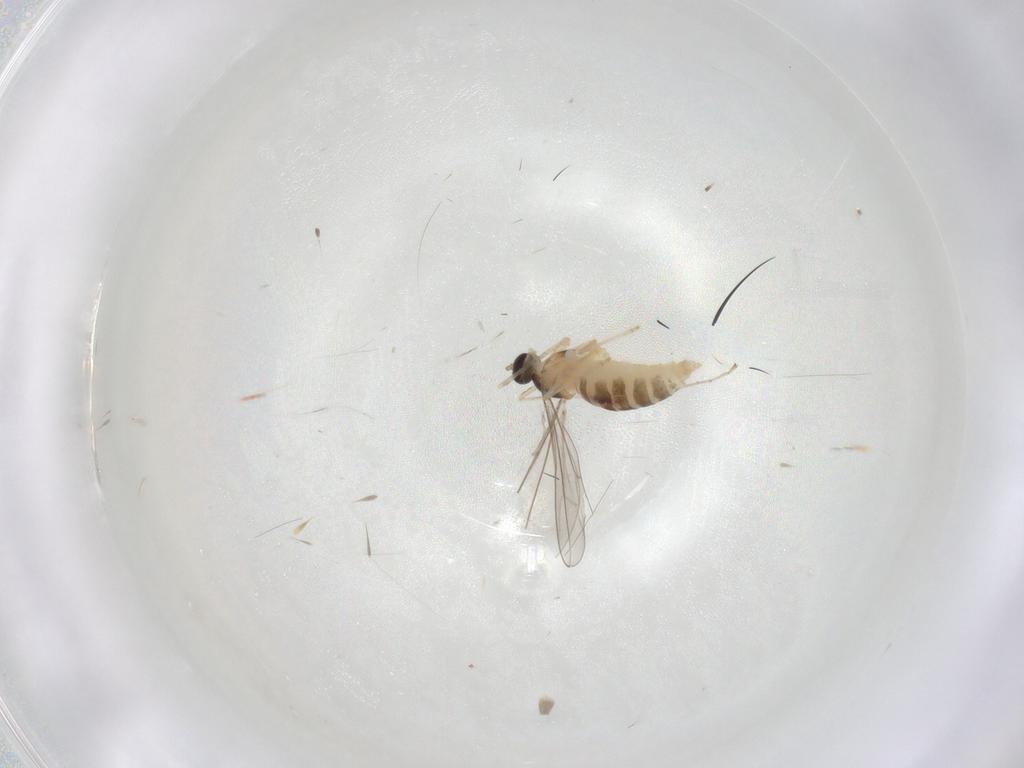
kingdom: Animalia
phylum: Arthropoda
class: Insecta
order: Diptera
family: Cecidomyiidae
